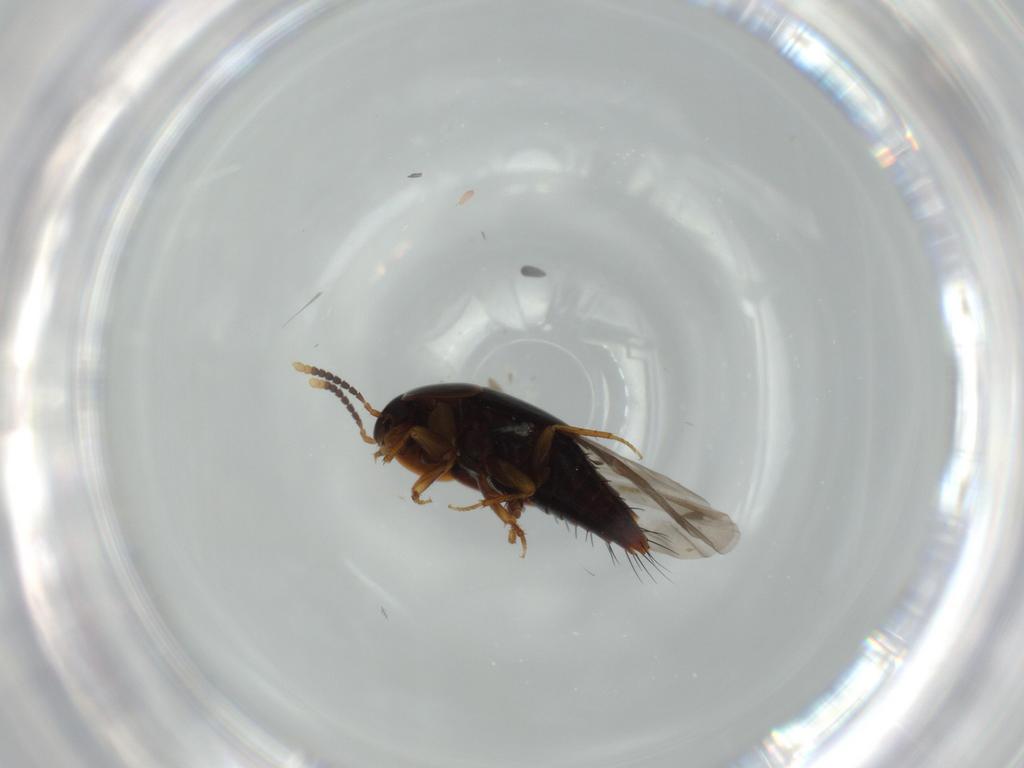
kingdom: Animalia
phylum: Arthropoda
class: Insecta
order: Coleoptera
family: Staphylinidae
